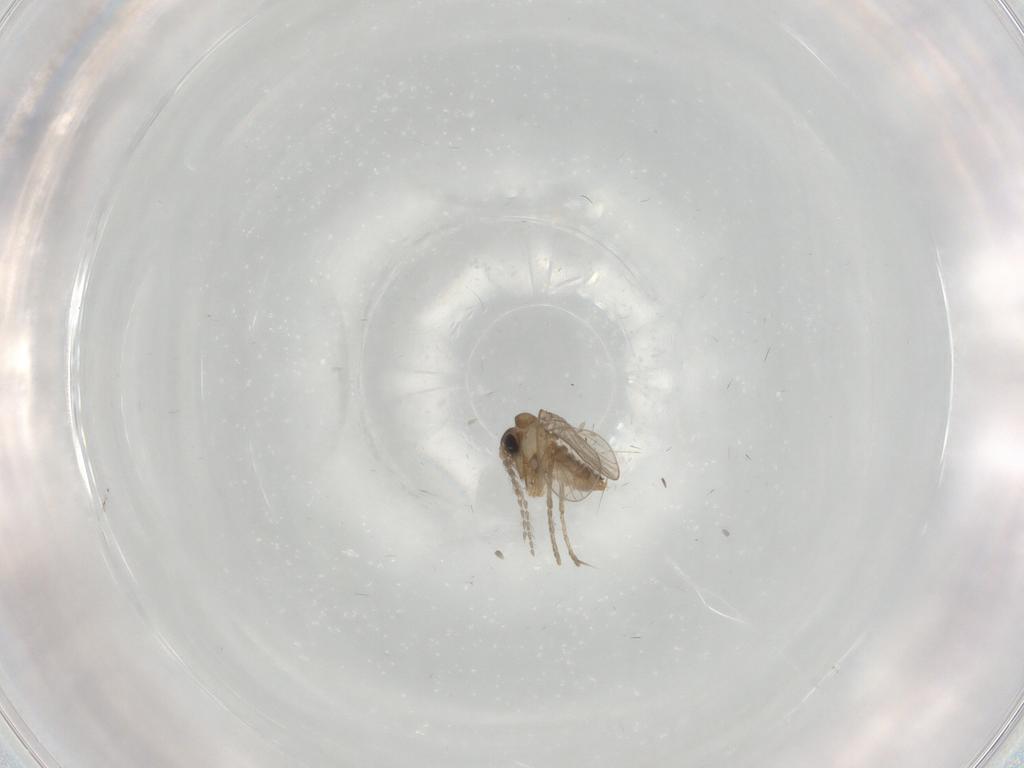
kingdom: Animalia
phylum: Arthropoda
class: Insecta
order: Diptera
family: Psychodidae
